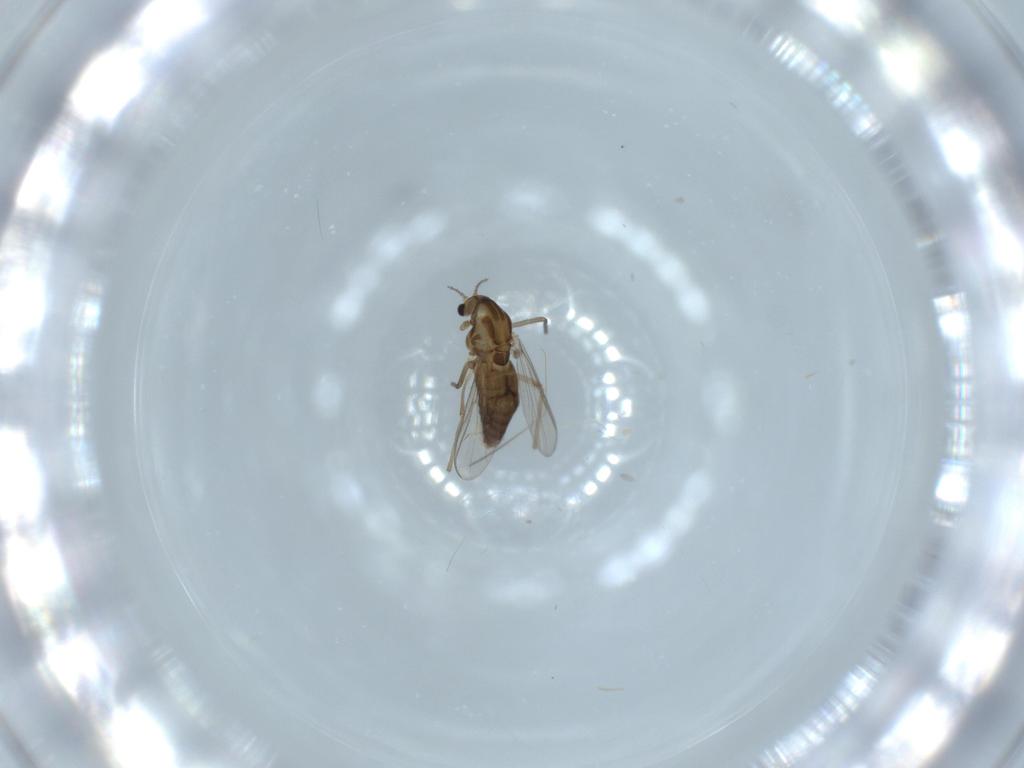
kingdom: Animalia
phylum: Arthropoda
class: Insecta
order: Diptera
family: Chironomidae
